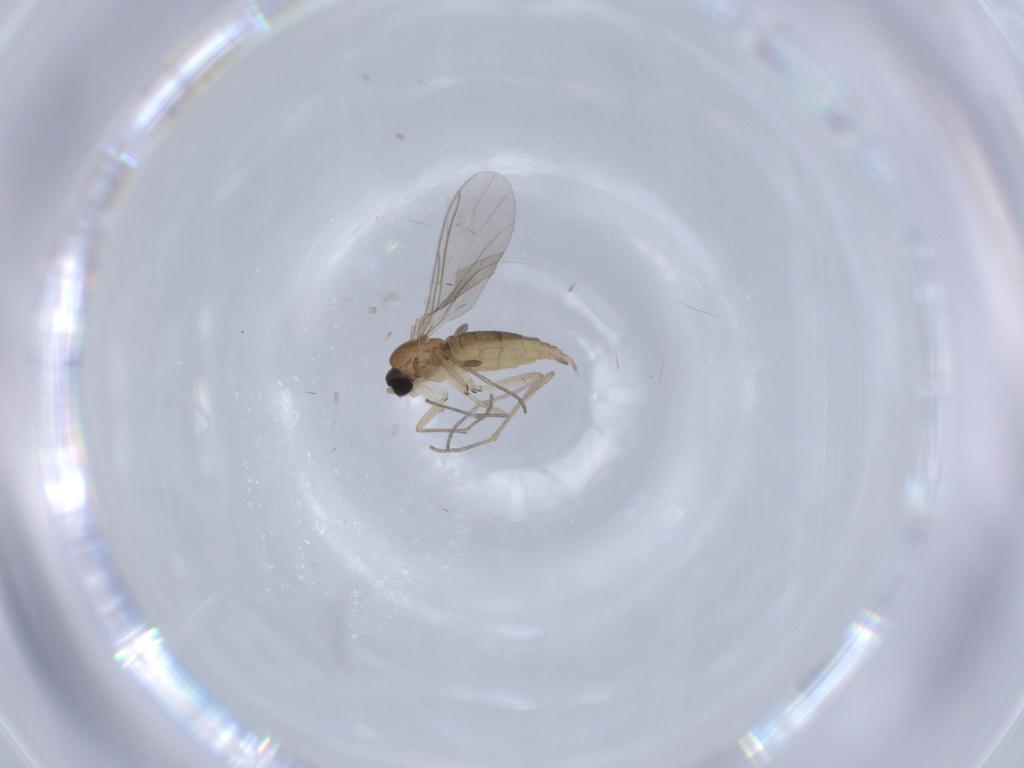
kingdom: Animalia
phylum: Arthropoda
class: Insecta
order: Diptera
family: Sciaridae
